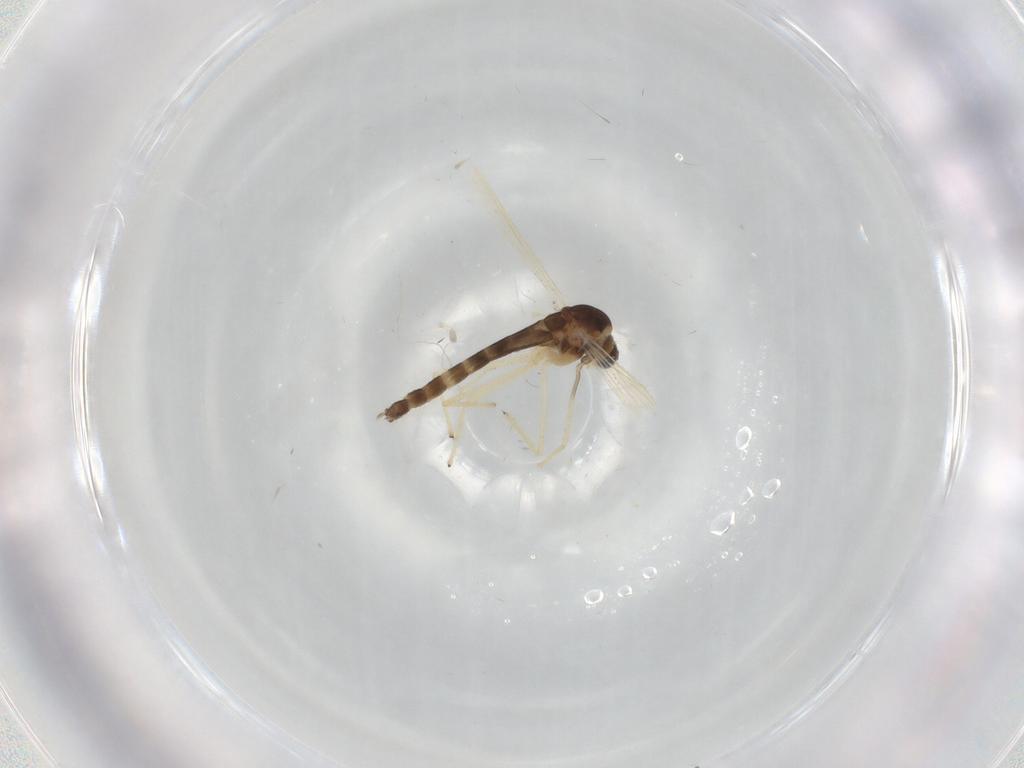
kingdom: Animalia
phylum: Arthropoda
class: Insecta
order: Diptera
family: Chironomidae
